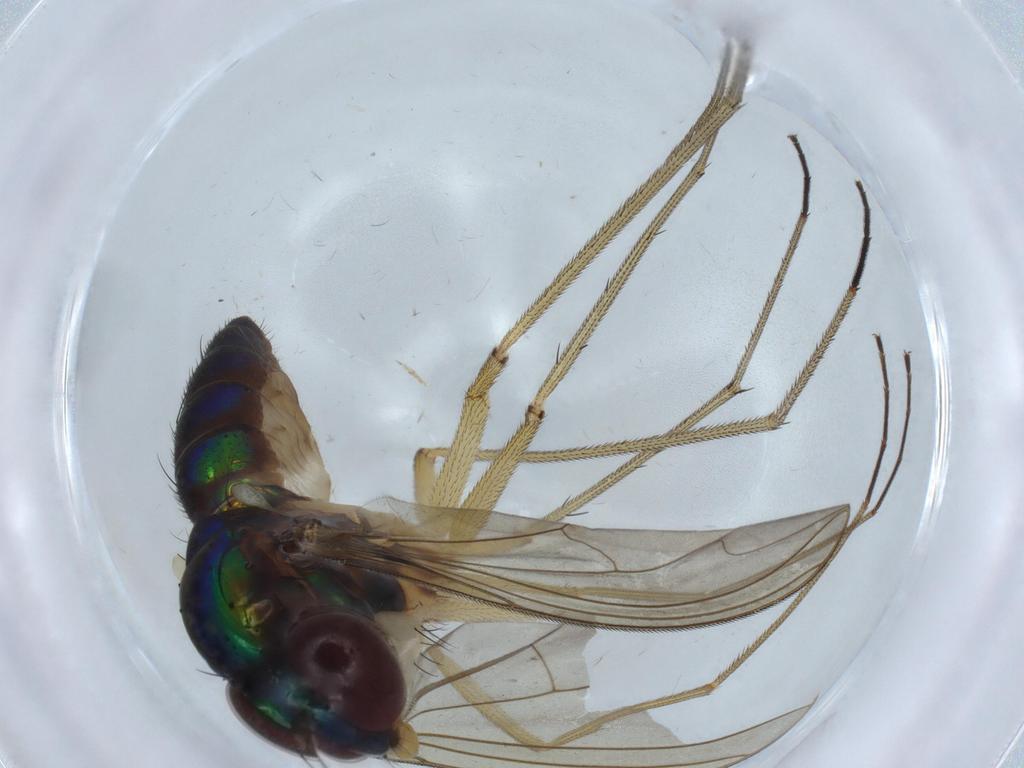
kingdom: Animalia
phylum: Arthropoda
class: Insecta
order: Diptera
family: Dolichopodidae
